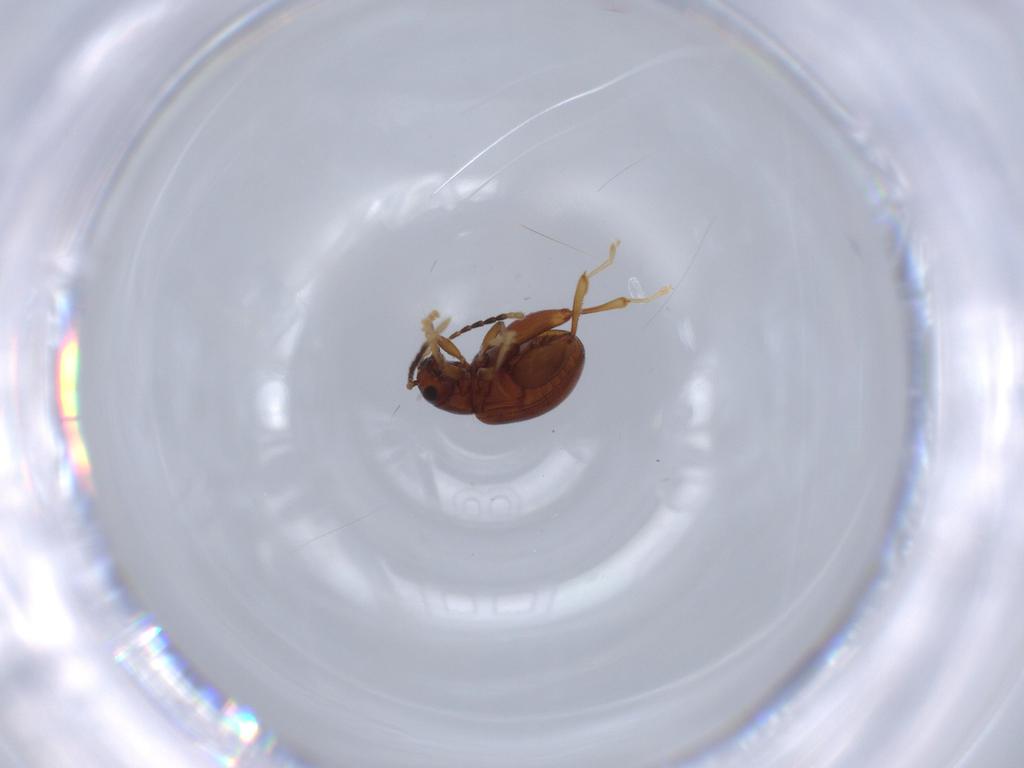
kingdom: Animalia
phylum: Arthropoda
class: Insecta
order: Coleoptera
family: Chrysomelidae
